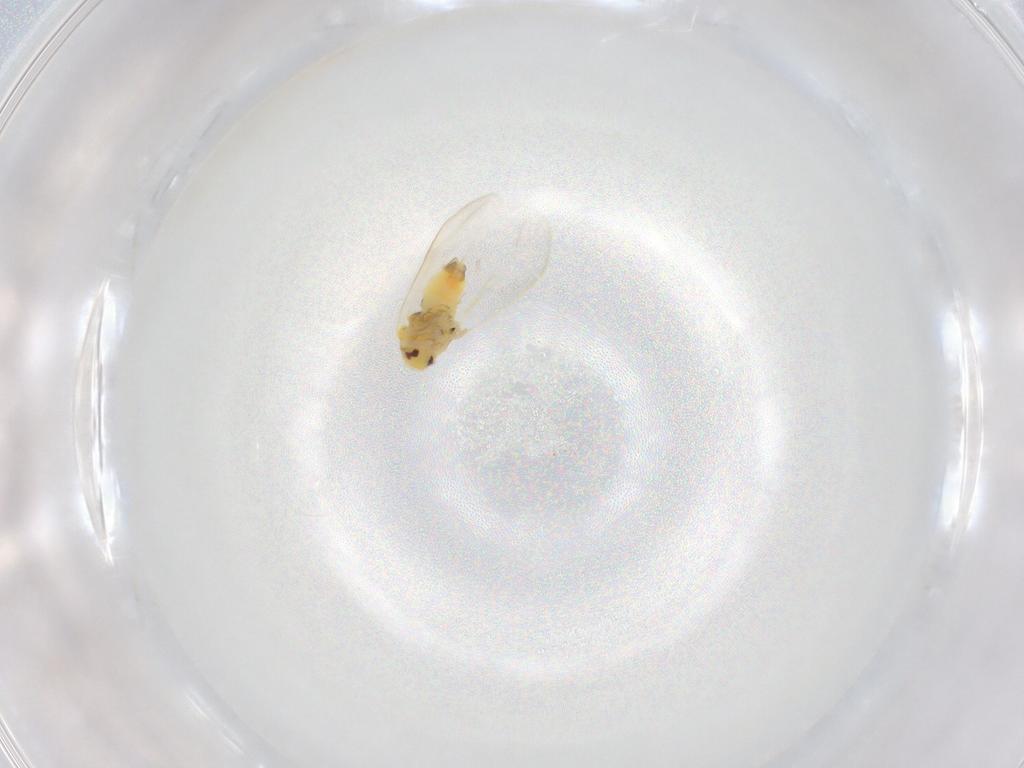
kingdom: Animalia
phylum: Arthropoda
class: Insecta
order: Hemiptera
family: Aleyrodidae
